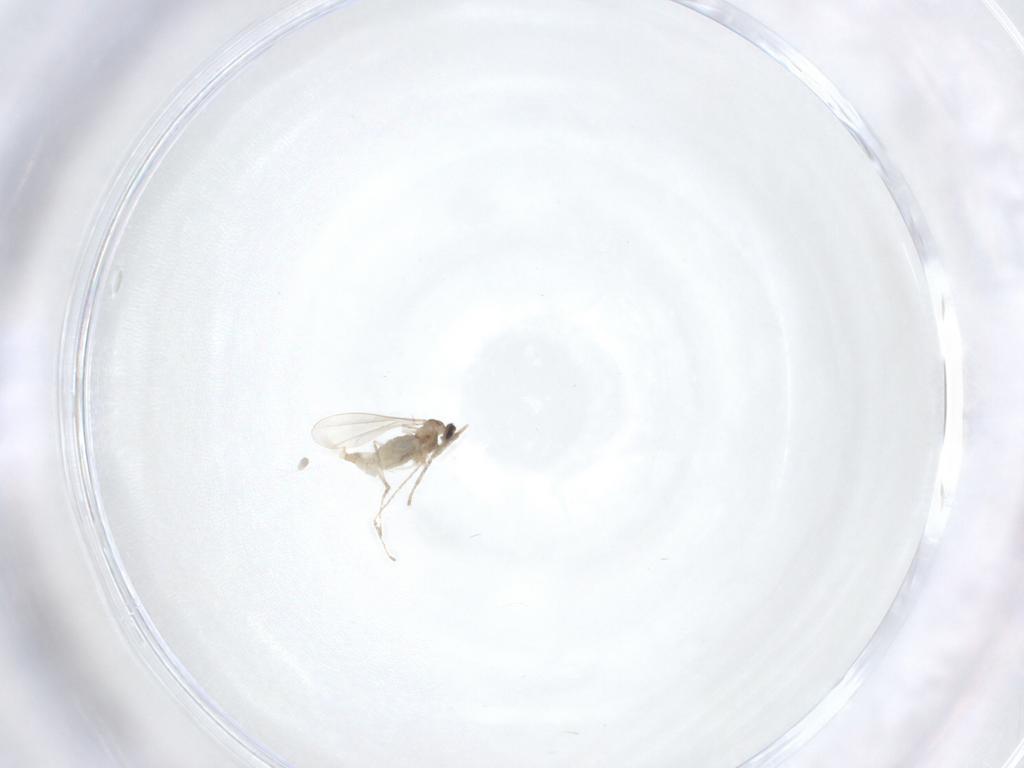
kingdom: Animalia
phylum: Arthropoda
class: Insecta
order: Diptera
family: Cecidomyiidae
